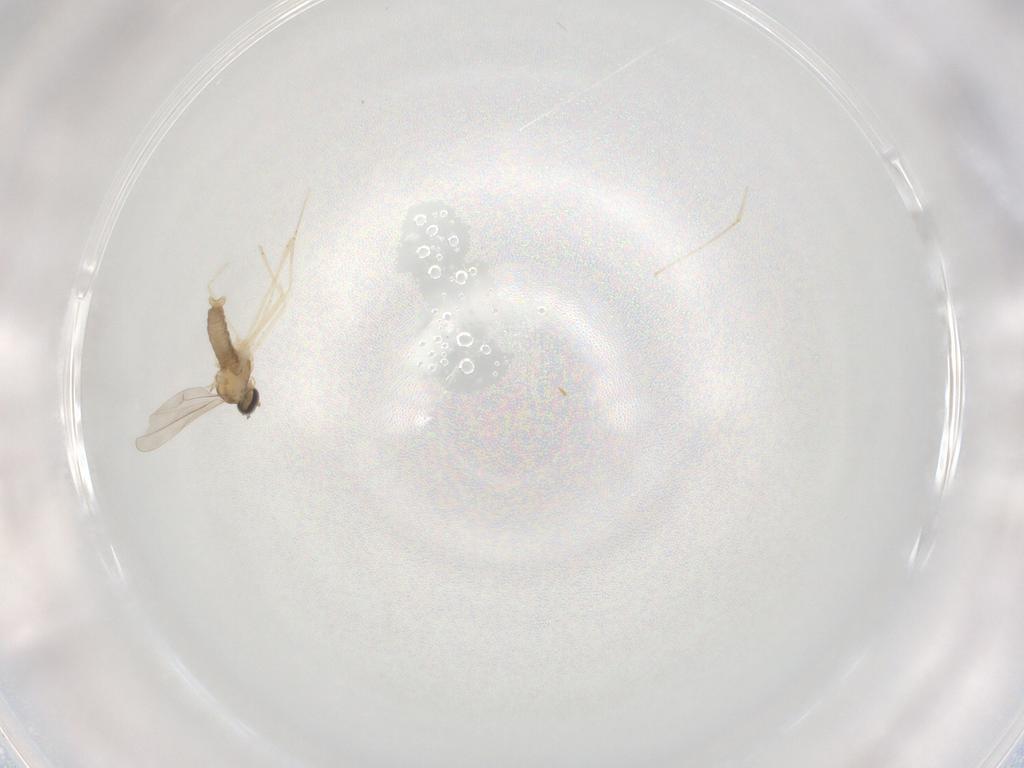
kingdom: Animalia
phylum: Arthropoda
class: Insecta
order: Diptera
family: Cecidomyiidae
